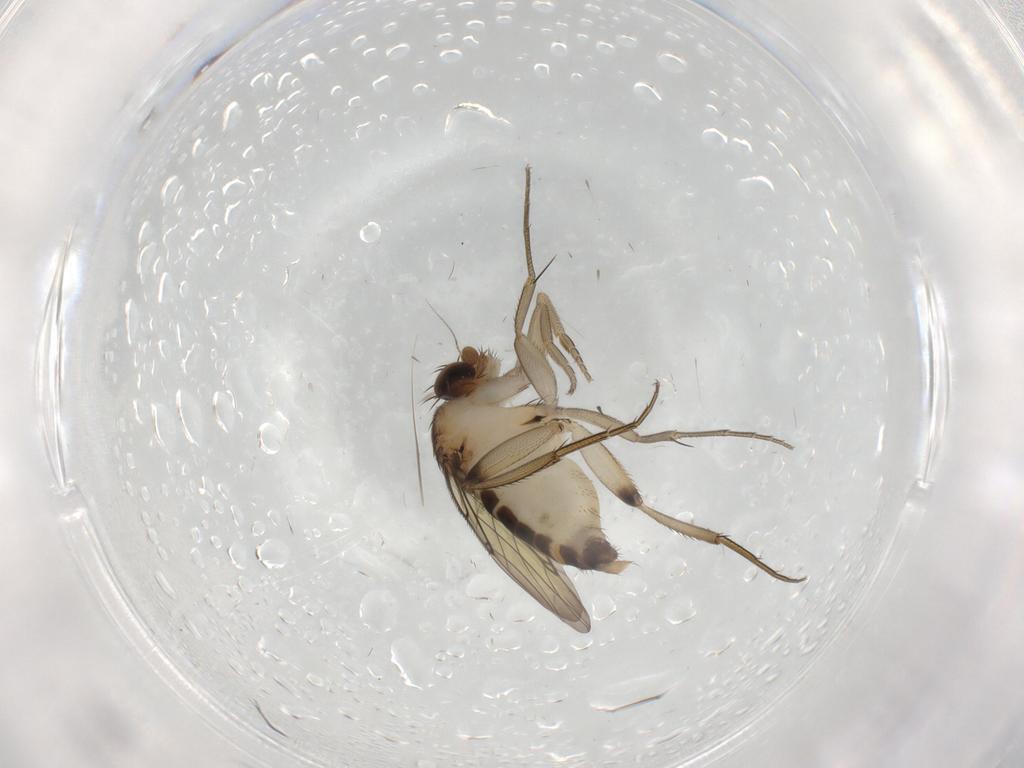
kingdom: Animalia
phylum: Arthropoda
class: Insecta
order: Diptera
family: Phoridae
